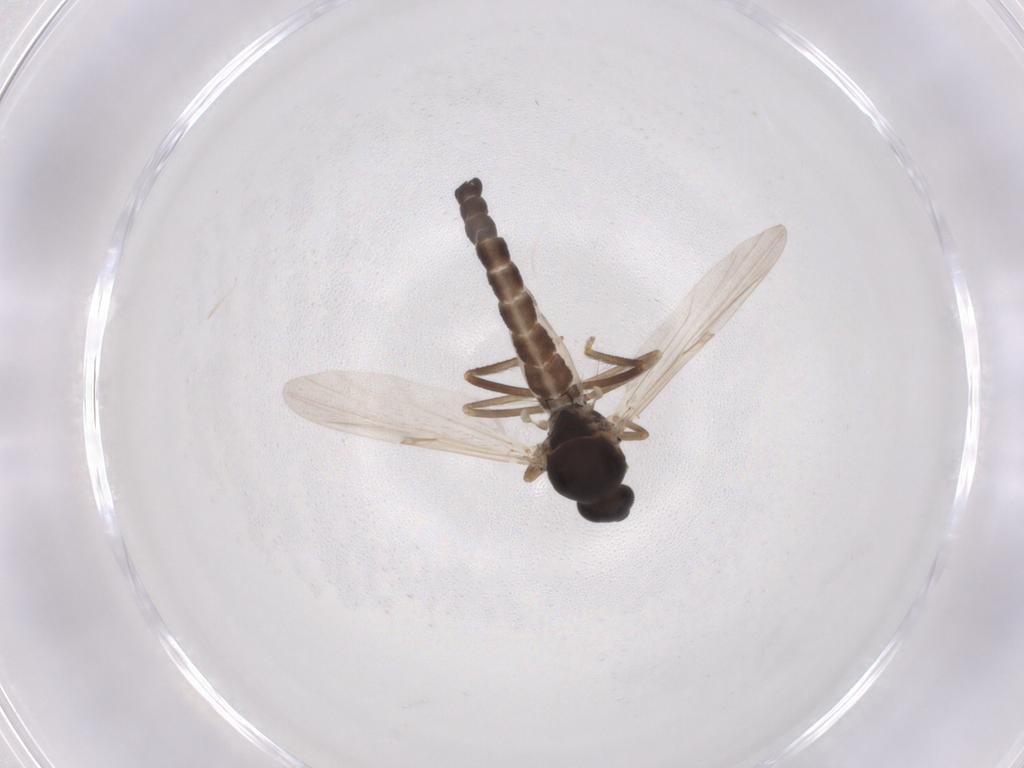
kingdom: Animalia
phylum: Arthropoda
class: Insecta
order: Diptera
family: Ceratopogonidae
